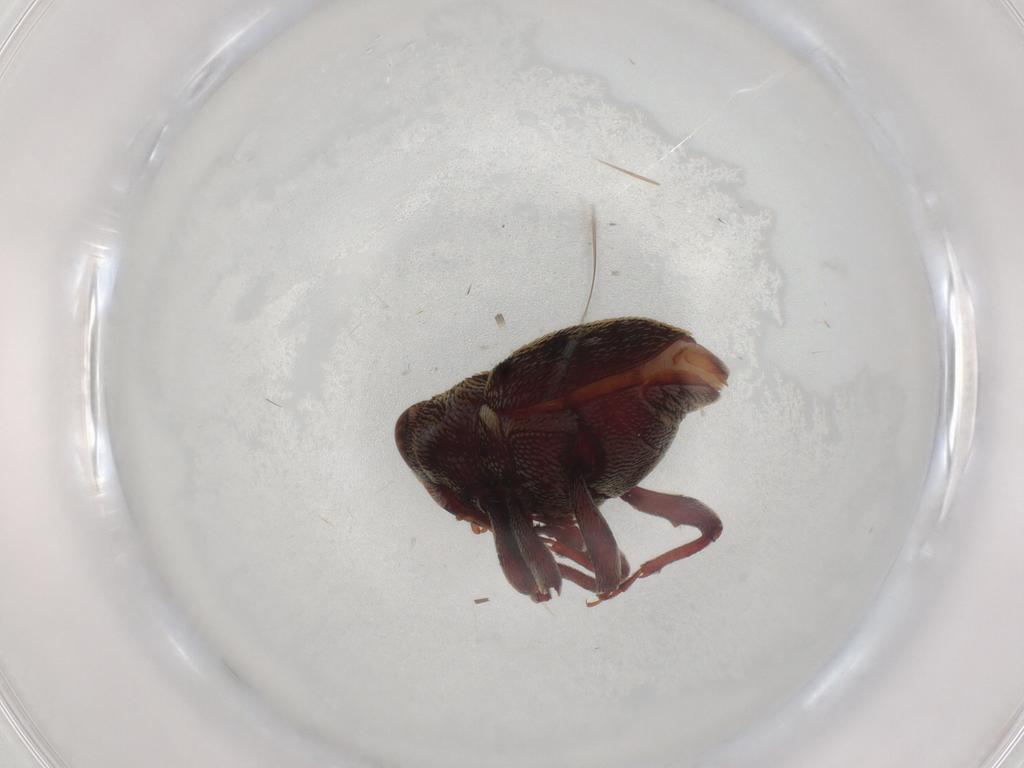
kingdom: Animalia
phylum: Arthropoda
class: Insecta
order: Coleoptera
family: Curculionidae
